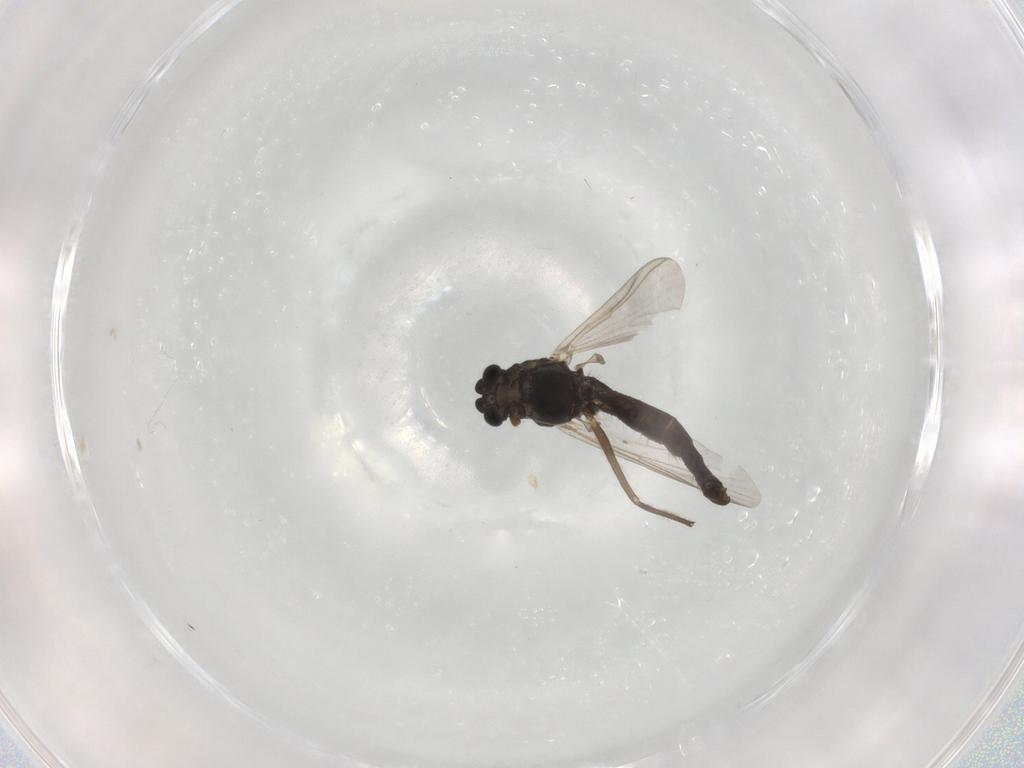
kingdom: Animalia
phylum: Arthropoda
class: Insecta
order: Diptera
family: Chironomidae
